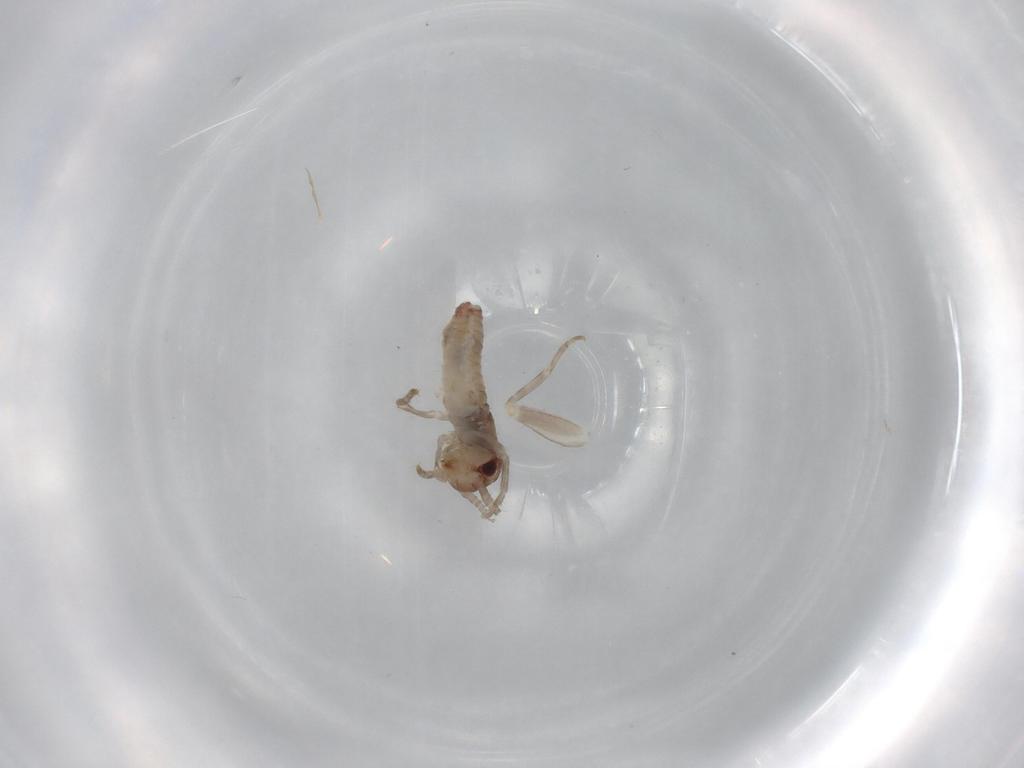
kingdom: Animalia
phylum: Arthropoda
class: Insecta
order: Orthoptera
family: Gryllidae
